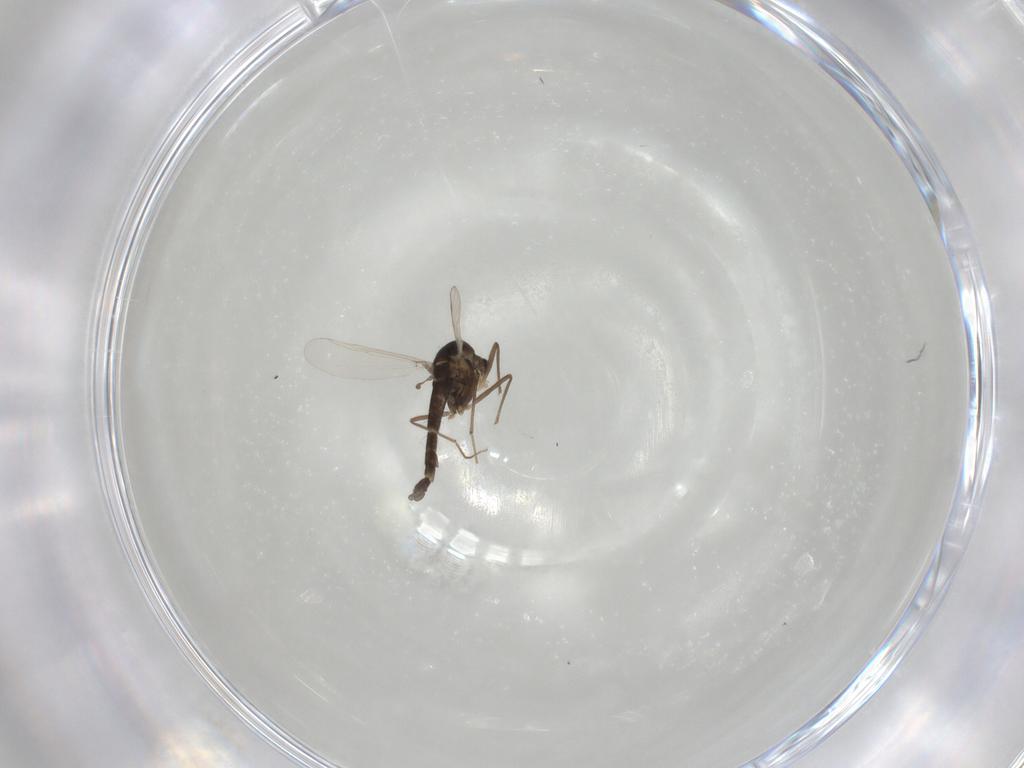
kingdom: Animalia
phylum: Arthropoda
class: Insecta
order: Diptera
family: Chironomidae
